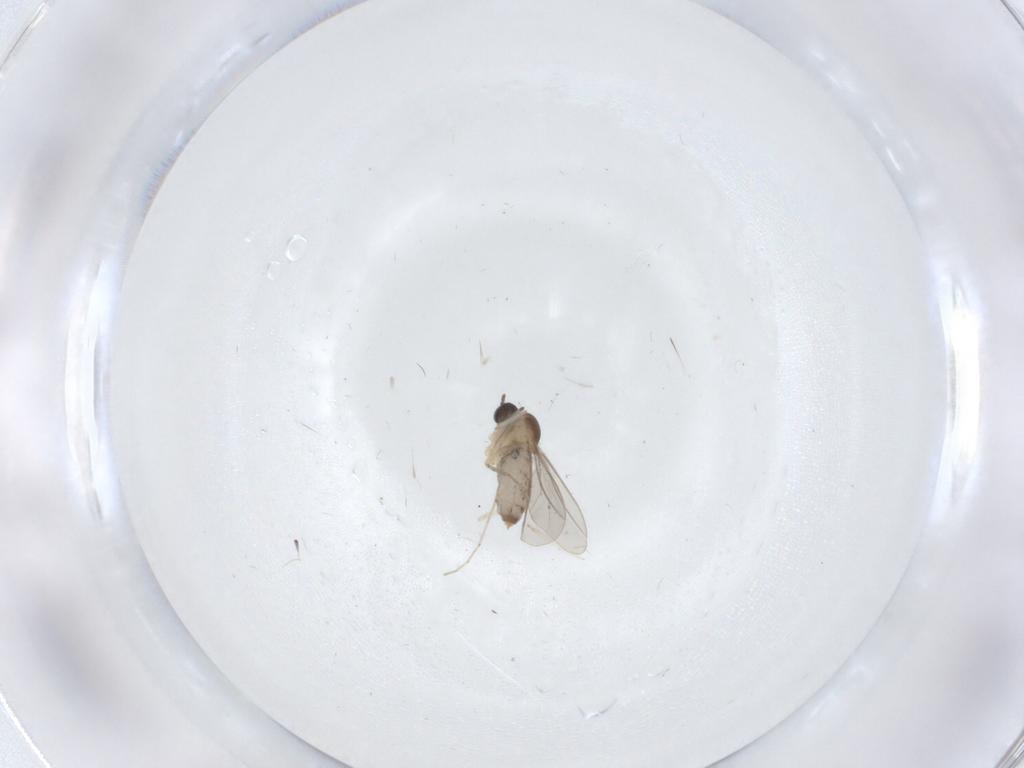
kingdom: Animalia
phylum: Arthropoda
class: Insecta
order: Diptera
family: Cecidomyiidae
